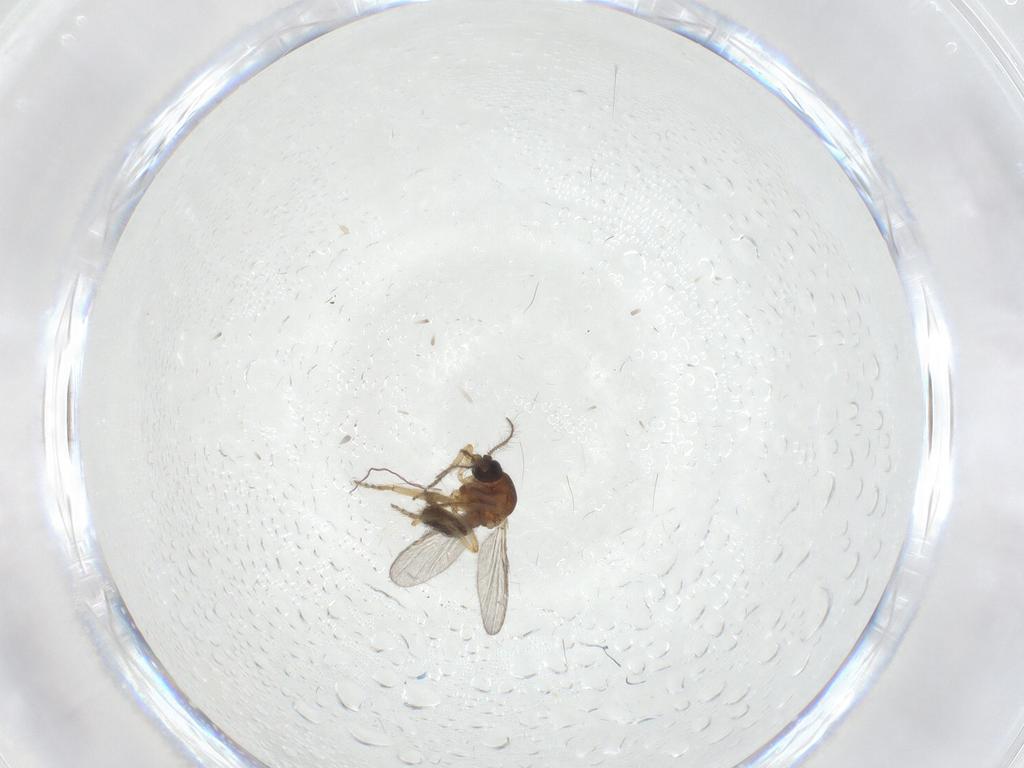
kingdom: Animalia
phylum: Arthropoda
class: Insecta
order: Diptera
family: Ceratopogonidae
